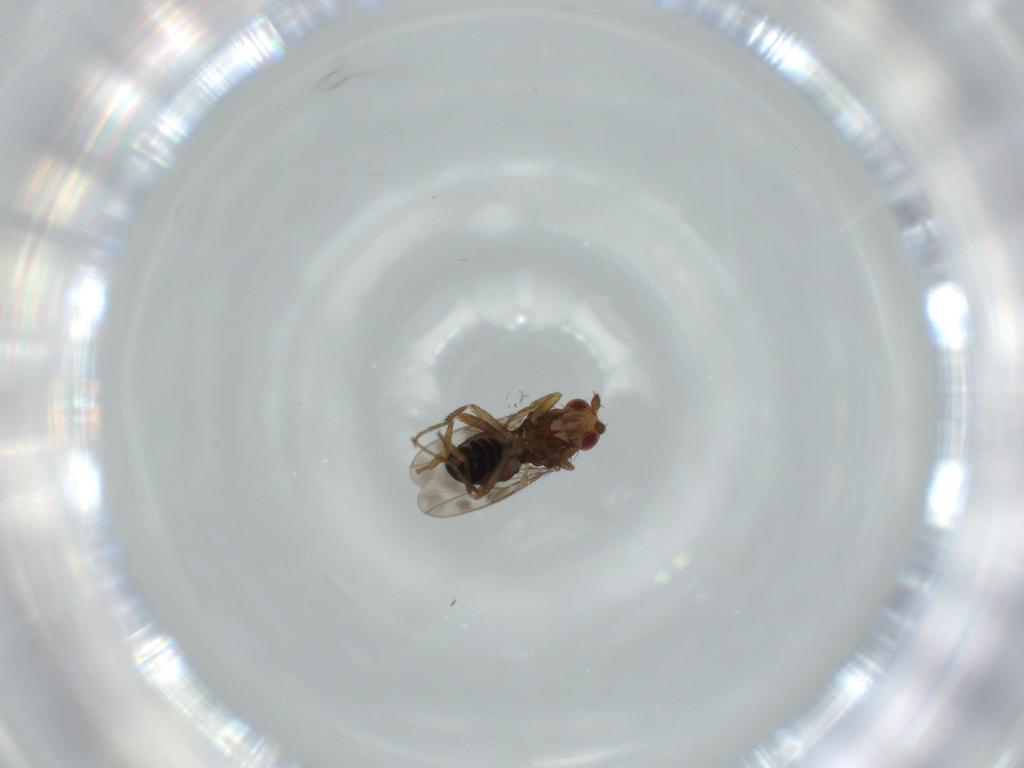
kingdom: Animalia
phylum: Arthropoda
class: Insecta
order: Diptera
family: Sphaeroceridae
